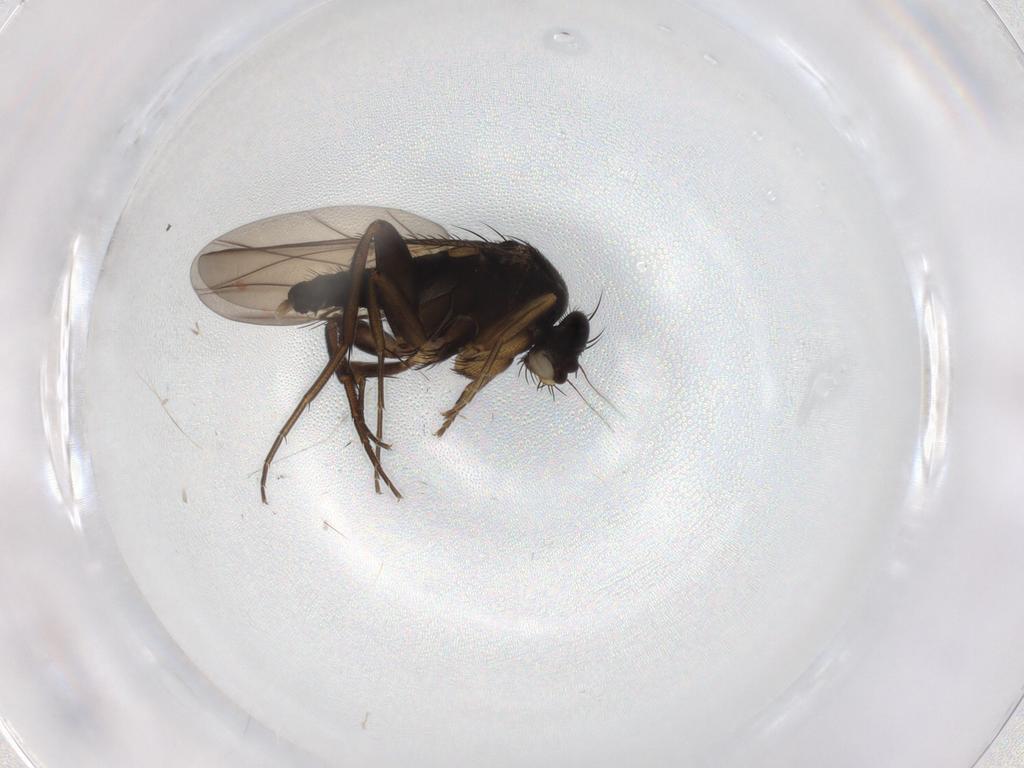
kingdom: Animalia
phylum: Arthropoda
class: Insecta
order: Diptera
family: Phoridae
